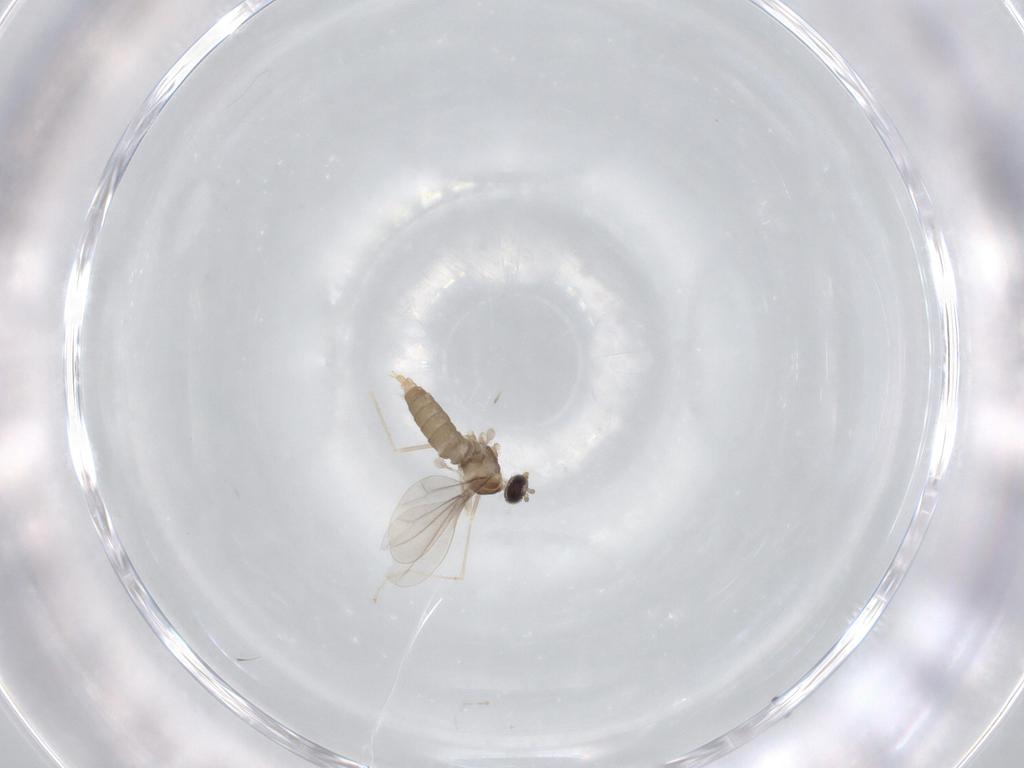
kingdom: Animalia
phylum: Arthropoda
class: Insecta
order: Diptera
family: Cecidomyiidae
